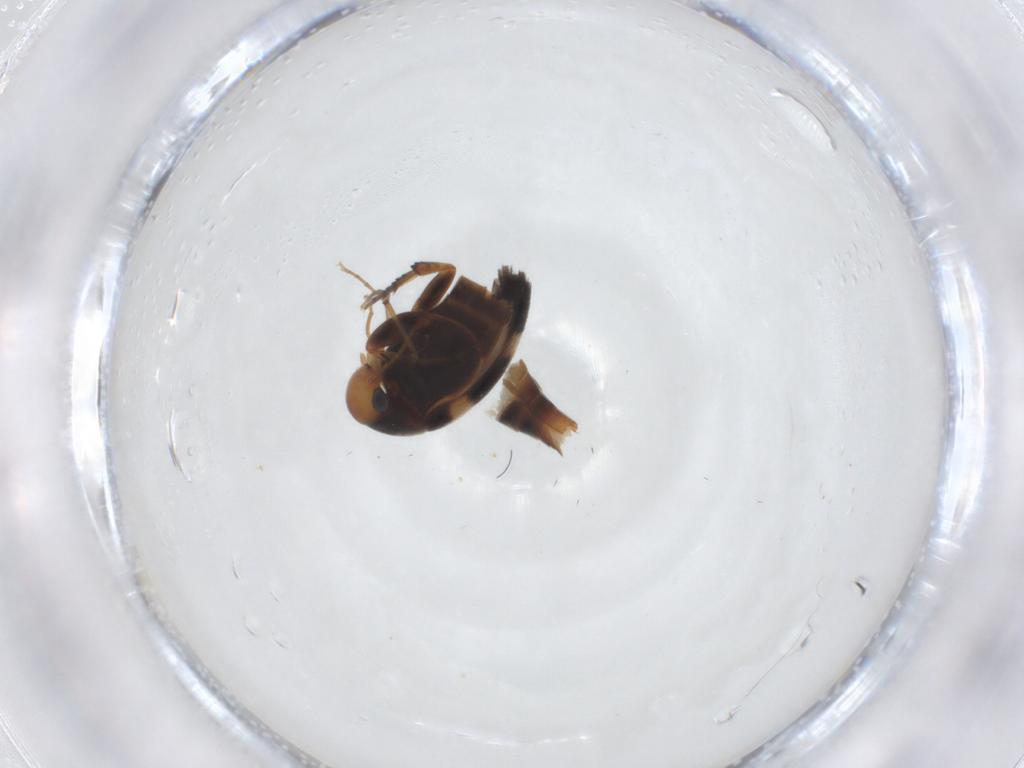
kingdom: Animalia
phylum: Arthropoda
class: Insecta
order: Coleoptera
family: Mordellidae
